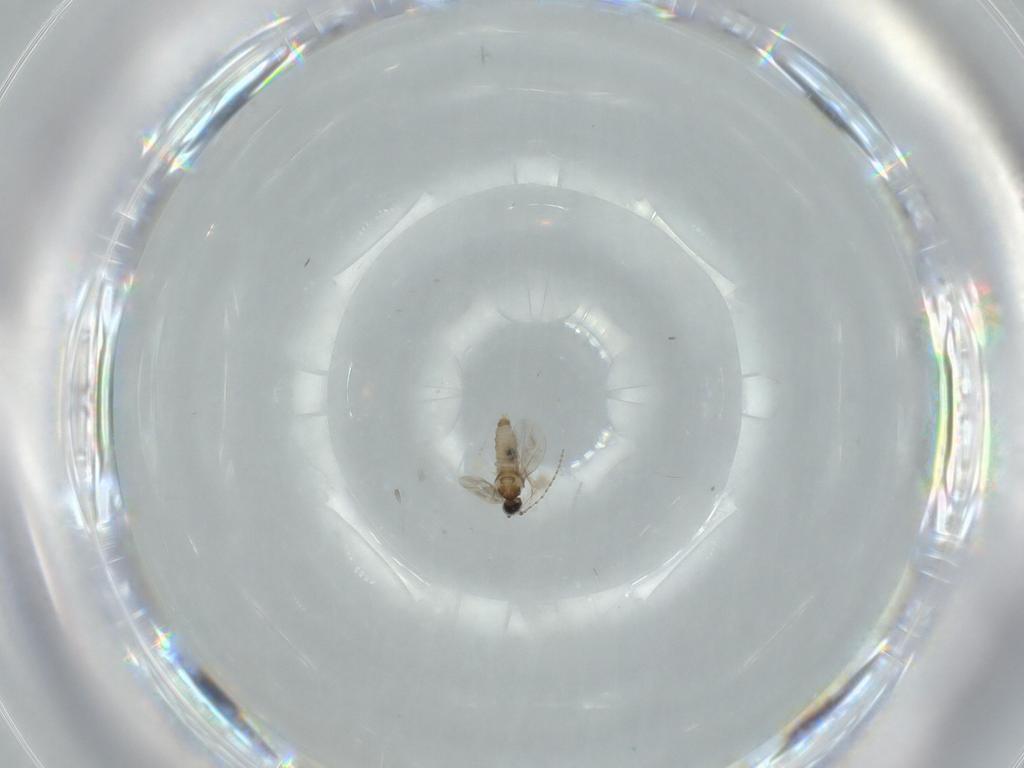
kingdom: Animalia
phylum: Arthropoda
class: Insecta
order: Diptera
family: Cecidomyiidae
